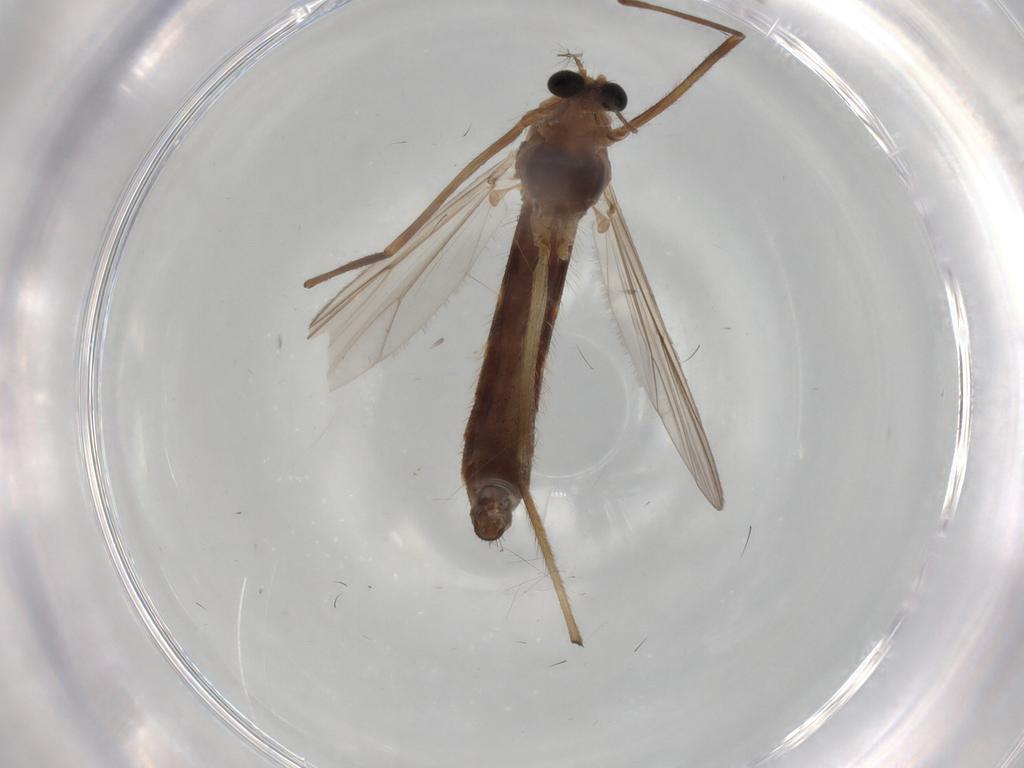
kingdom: Animalia
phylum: Arthropoda
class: Insecta
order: Diptera
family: Chironomidae
